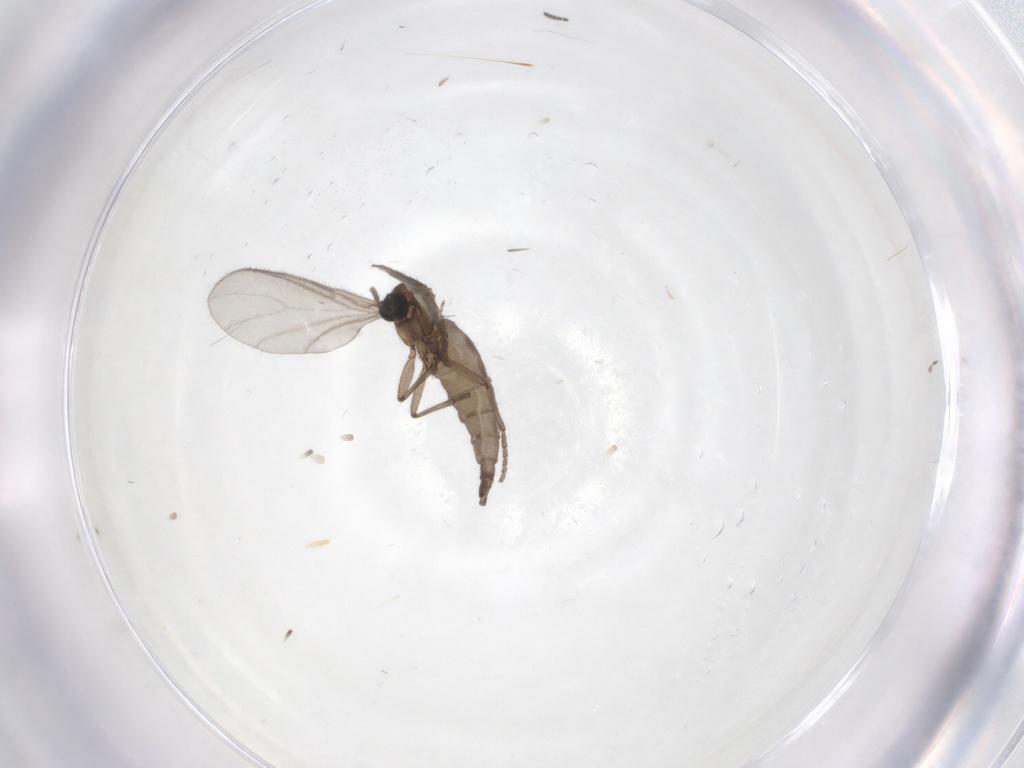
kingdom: Animalia
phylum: Arthropoda
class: Insecta
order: Diptera
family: Sciaridae
